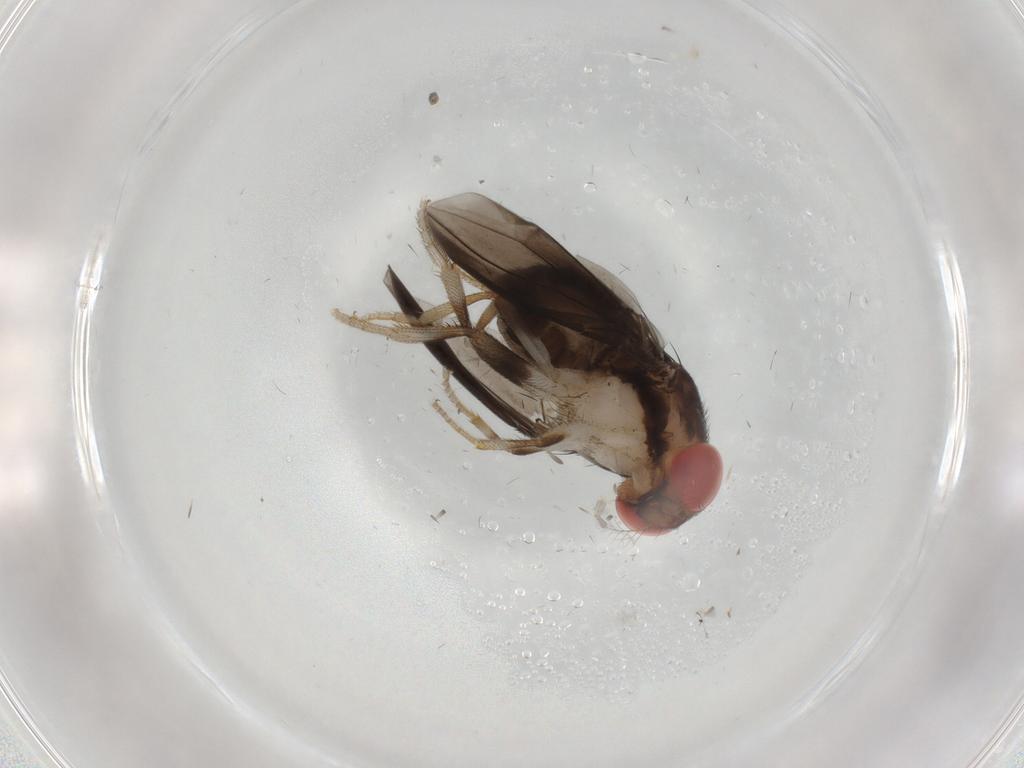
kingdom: Animalia
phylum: Arthropoda
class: Insecta
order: Diptera
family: Drosophilidae
